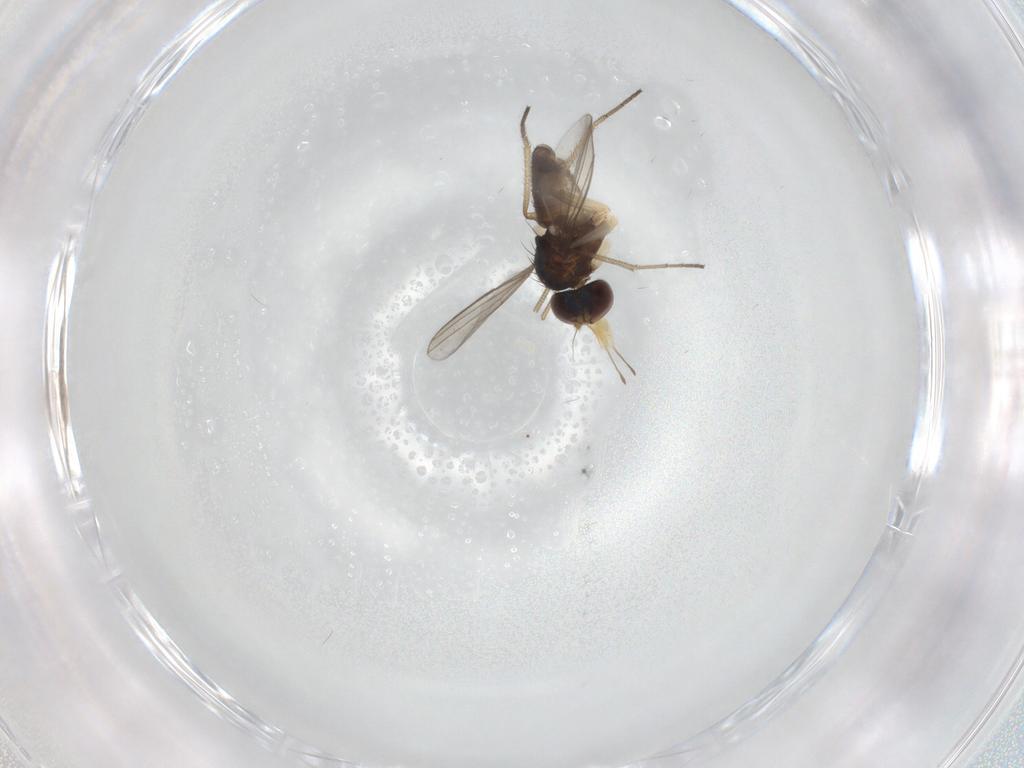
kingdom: Animalia
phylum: Arthropoda
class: Insecta
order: Diptera
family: Dolichopodidae
